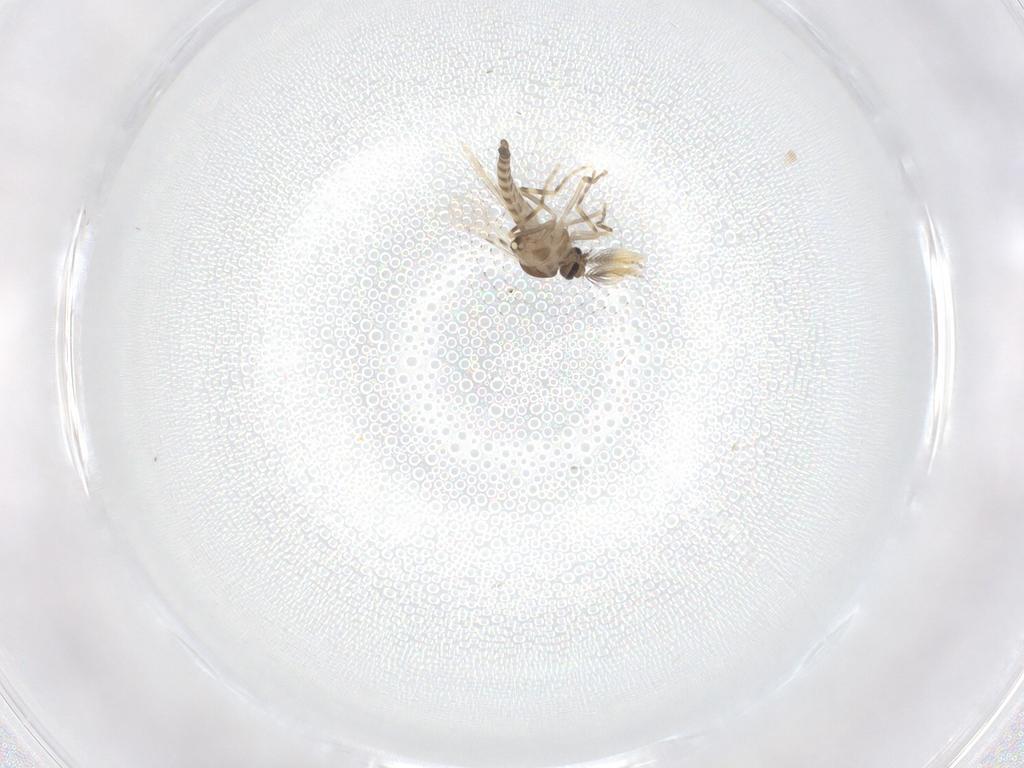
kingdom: Animalia
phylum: Arthropoda
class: Insecta
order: Diptera
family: Ceratopogonidae
